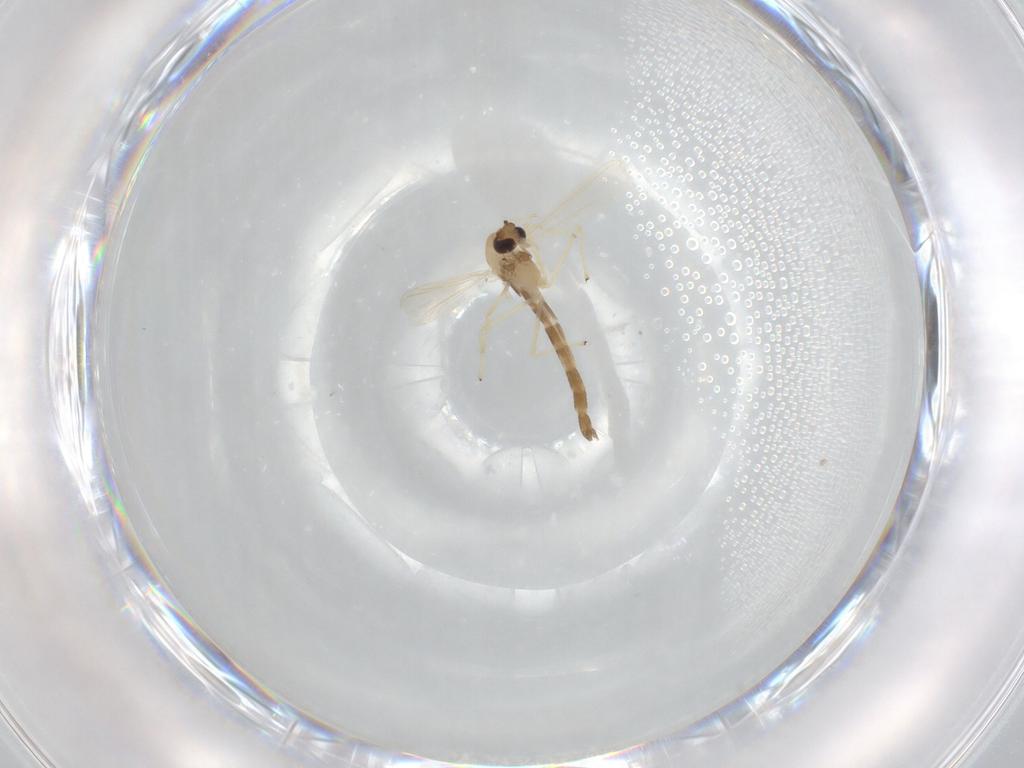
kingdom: Animalia
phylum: Arthropoda
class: Insecta
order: Diptera
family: Chironomidae
